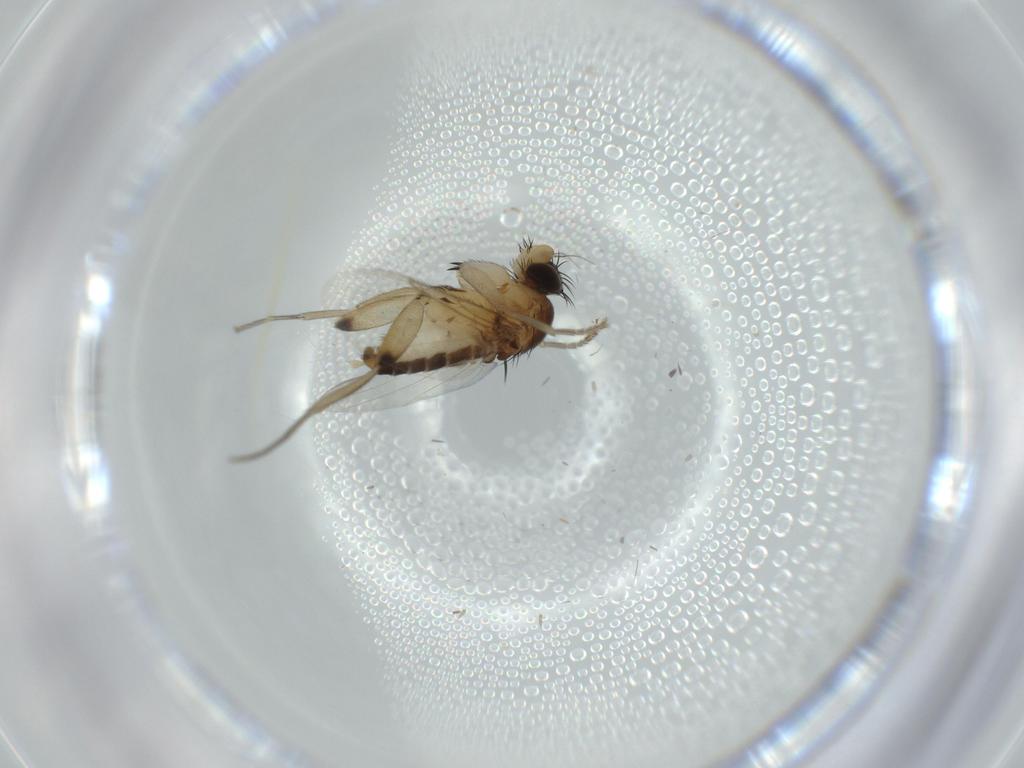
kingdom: Animalia
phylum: Arthropoda
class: Insecta
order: Diptera
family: Phoridae
